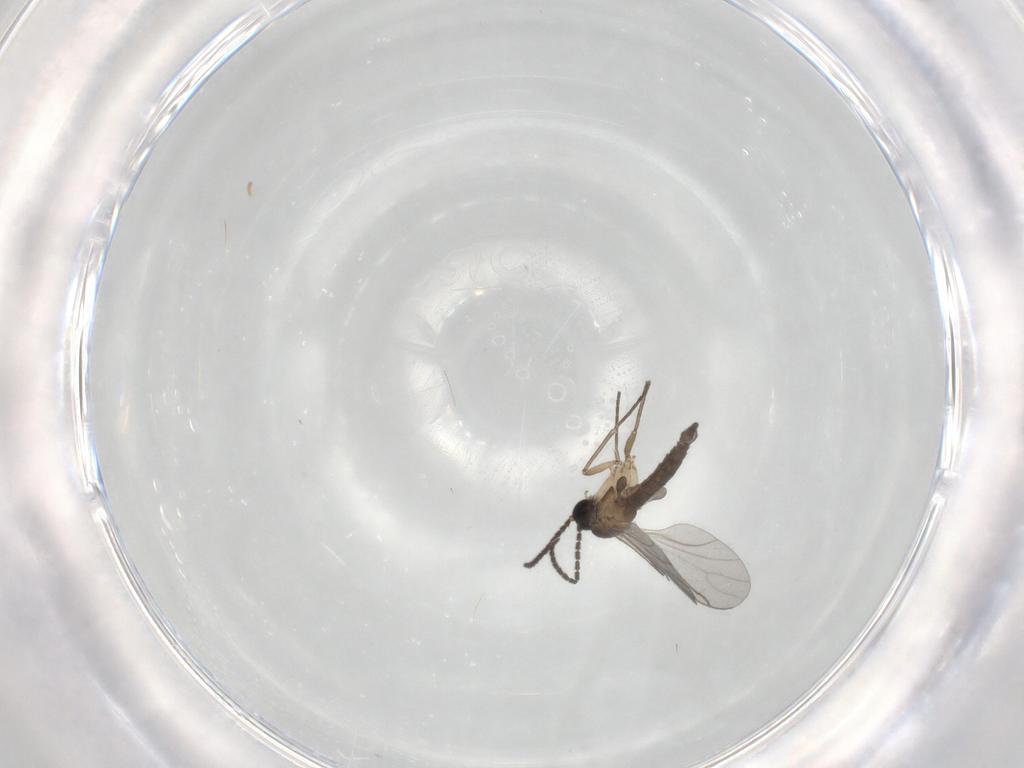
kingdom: Animalia
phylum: Arthropoda
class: Insecta
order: Diptera
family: Sciaridae
